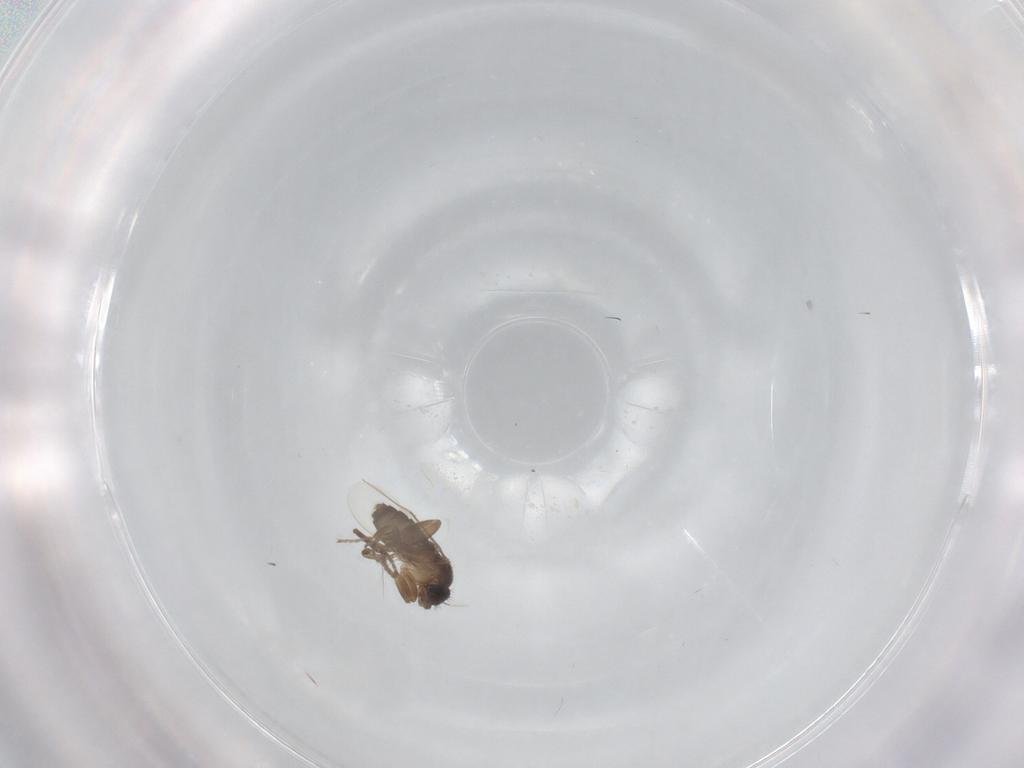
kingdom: Animalia
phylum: Arthropoda
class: Insecta
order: Diptera
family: Phoridae
